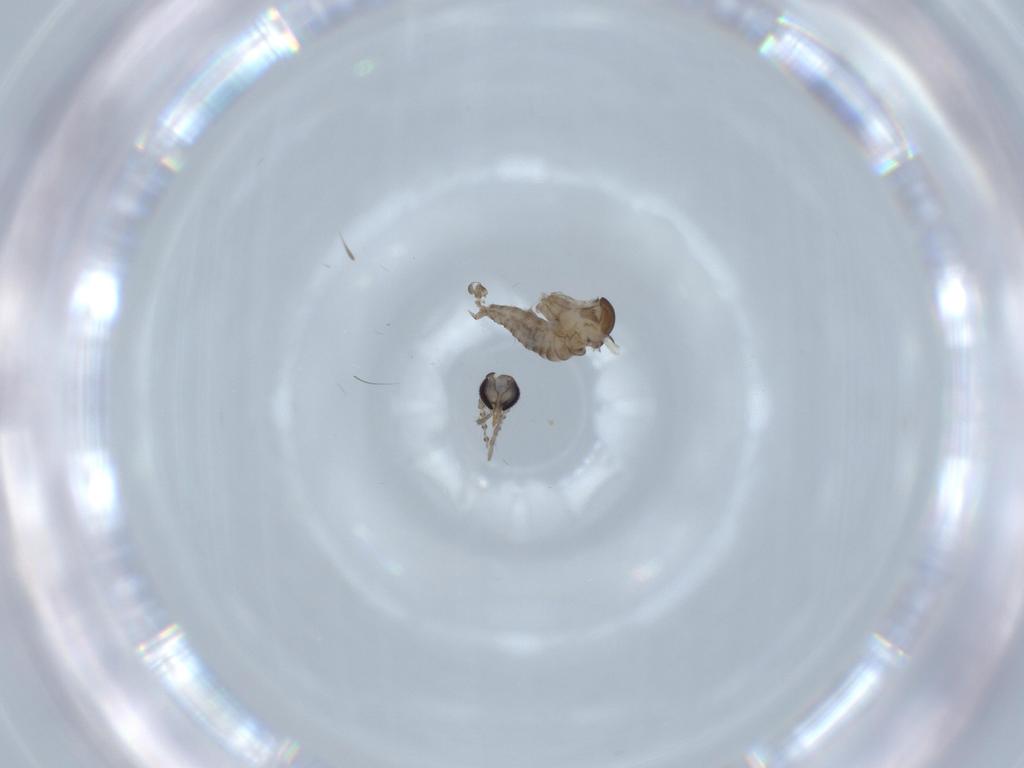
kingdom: Animalia
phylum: Arthropoda
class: Insecta
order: Diptera
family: Psychodidae
